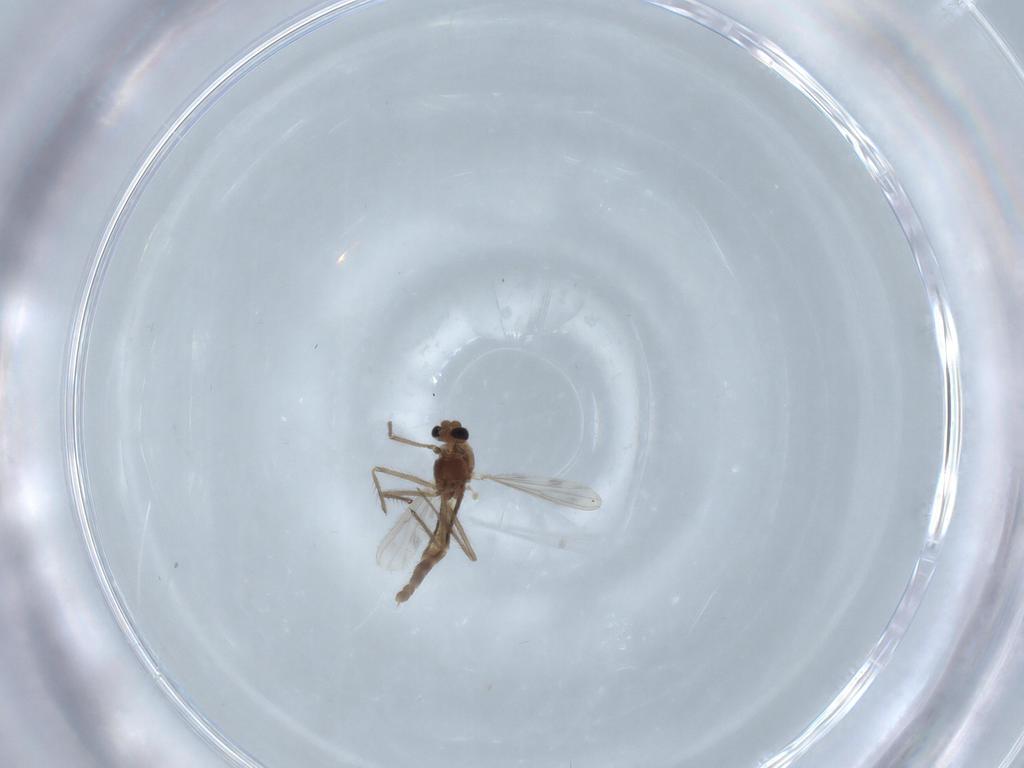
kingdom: Animalia
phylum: Arthropoda
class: Insecta
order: Diptera
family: Chironomidae
